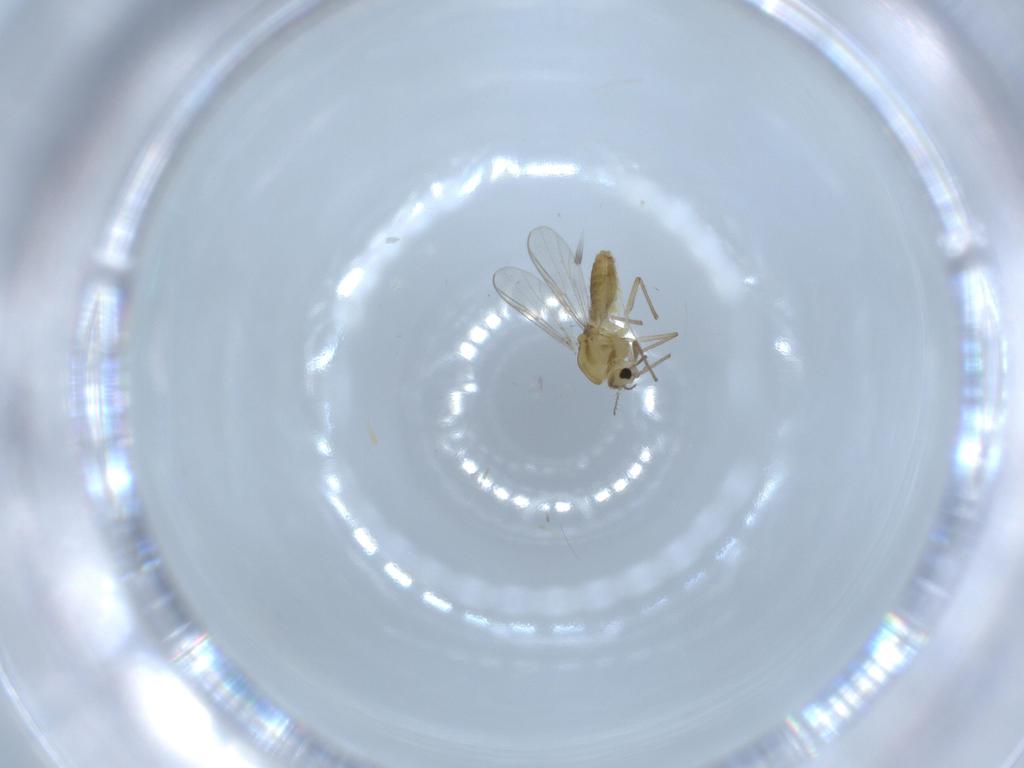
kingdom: Animalia
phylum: Arthropoda
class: Insecta
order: Diptera
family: Chironomidae
